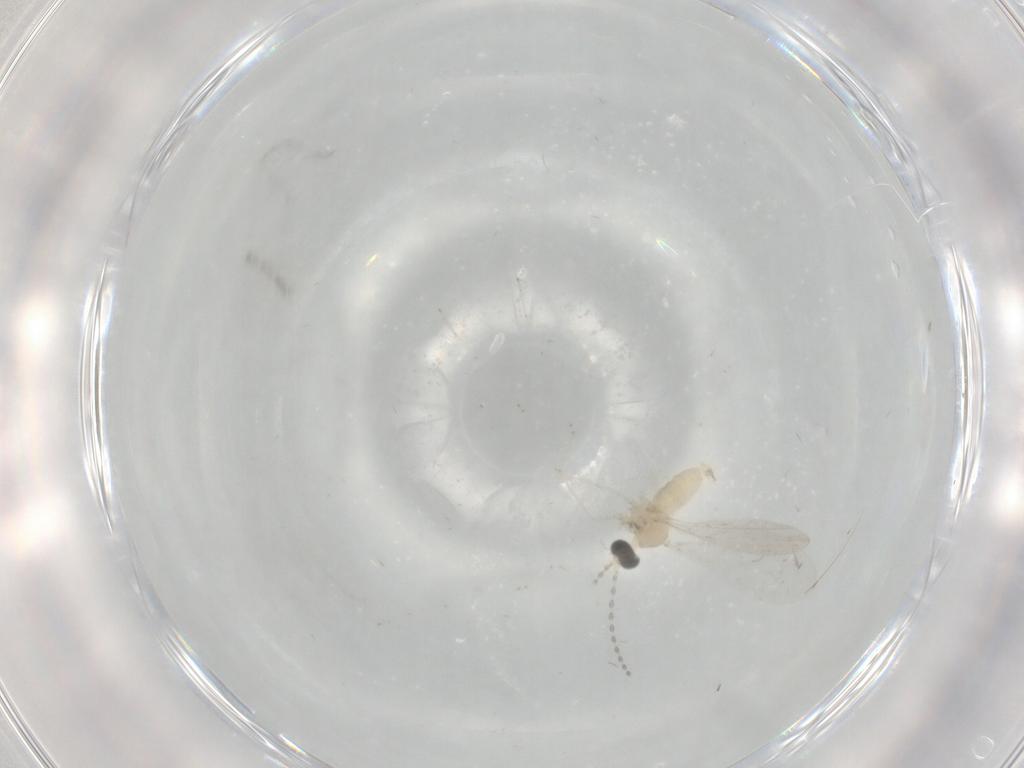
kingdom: Animalia
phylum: Arthropoda
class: Insecta
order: Diptera
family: Cecidomyiidae
